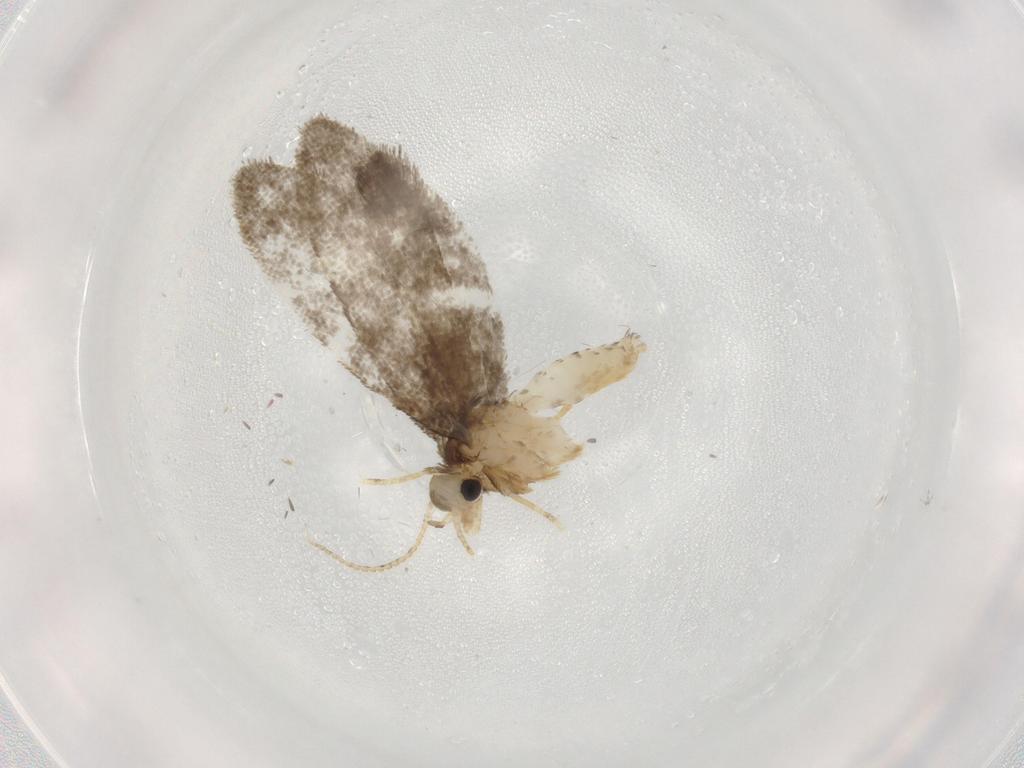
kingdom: Animalia
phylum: Arthropoda
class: Insecta
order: Lepidoptera
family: Psychidae
